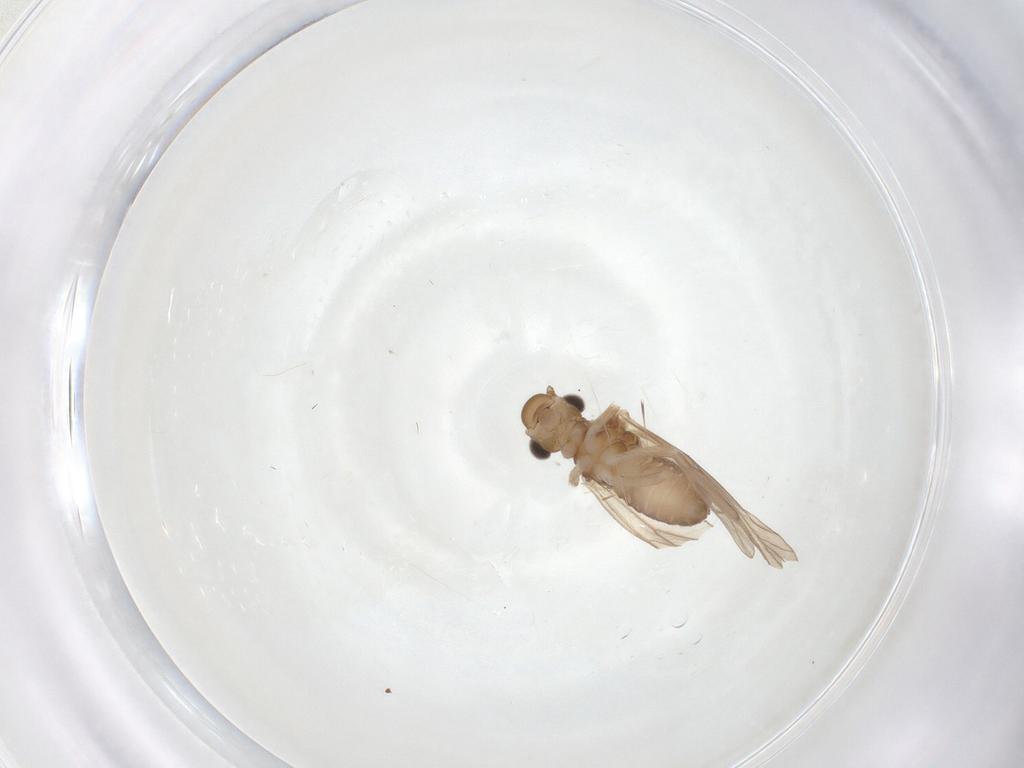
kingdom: Animalia
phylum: Arthropoda
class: Insecta
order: Psocodea
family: Philotarsidae
